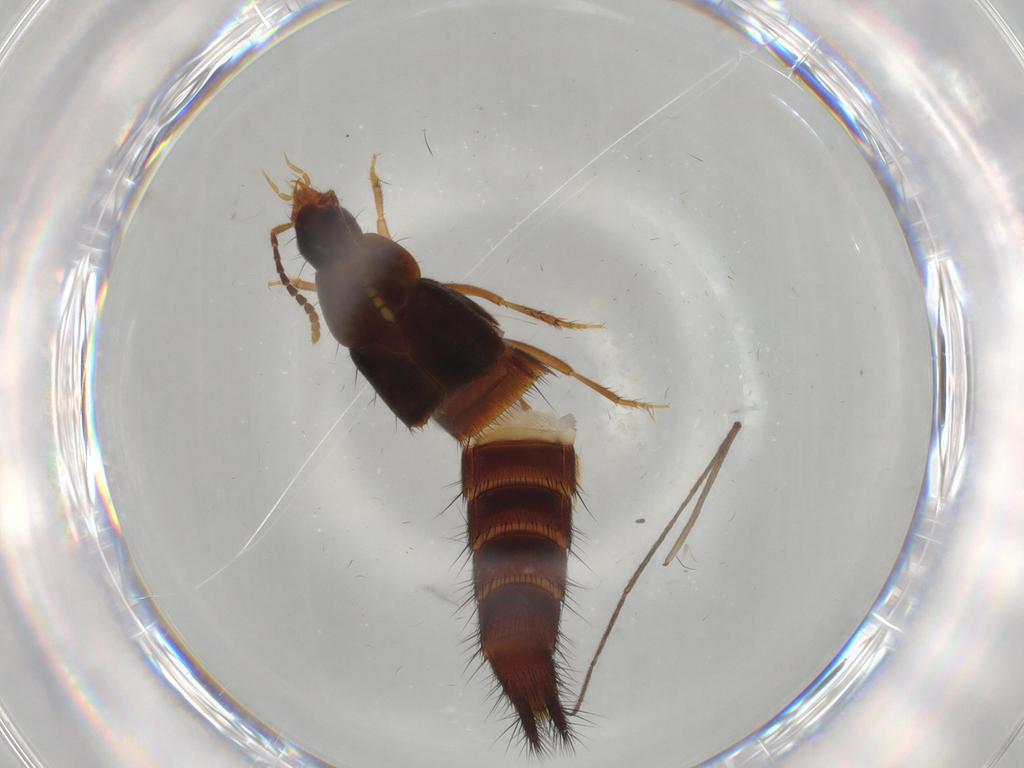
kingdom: Animalia
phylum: Arthropoda
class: Insecta
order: Coleoptera
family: Staphylinidae
